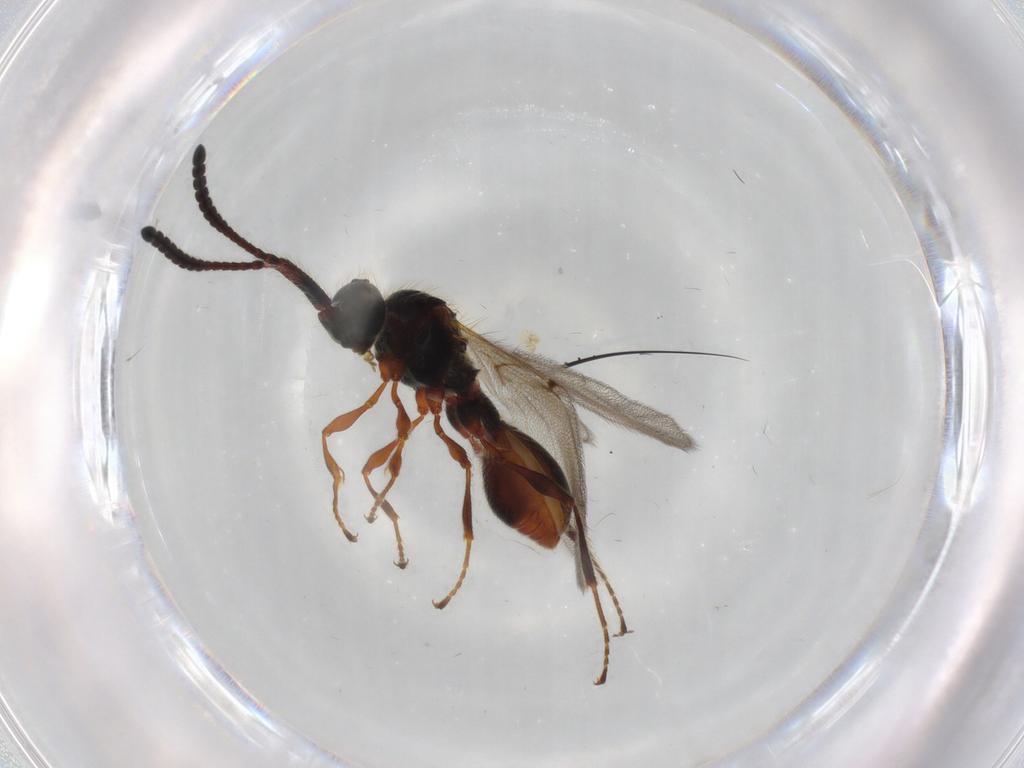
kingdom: Animalia
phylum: Arthropoda
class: Insecta
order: Hymenoptera
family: Diapriidae
